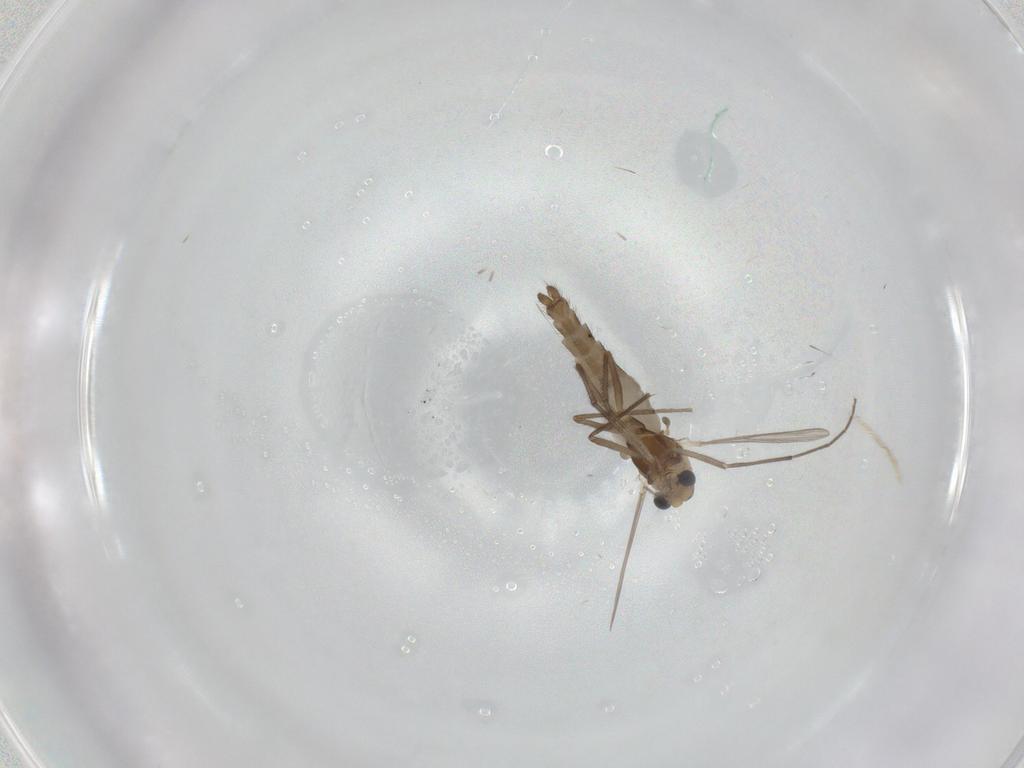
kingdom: Animalia
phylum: Arthropoda
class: Insecta
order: Diptera
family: Chironomidae
